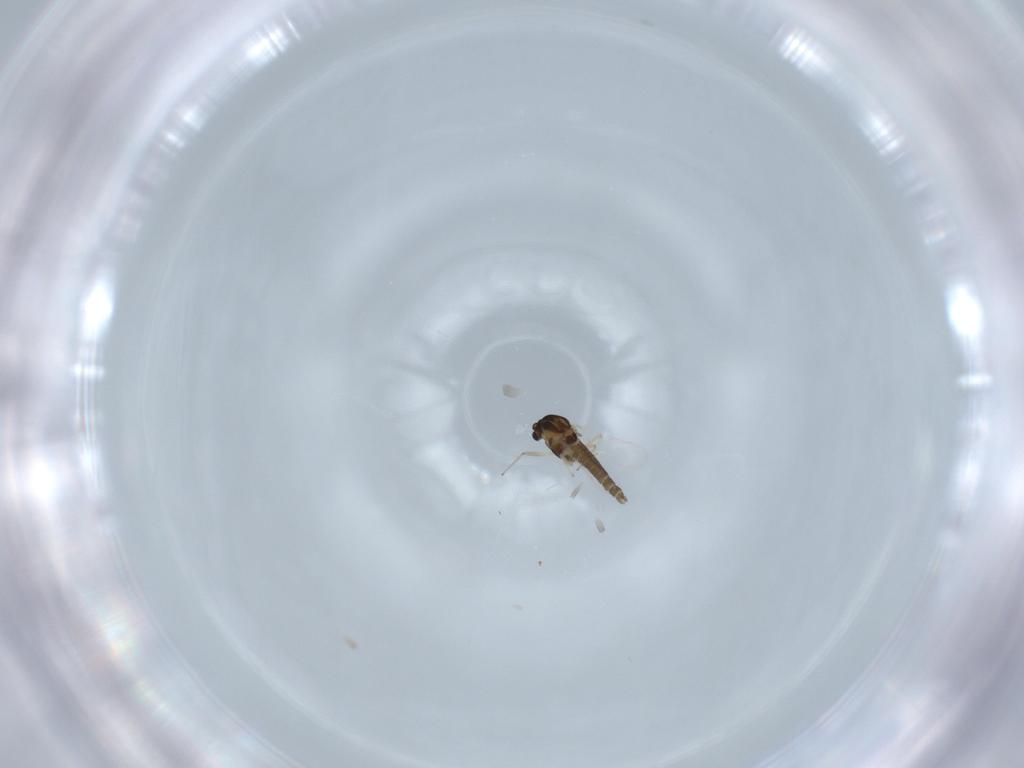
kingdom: Animalia
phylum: Arthropoda
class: Insecta
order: Diptera
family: Chironomidae
